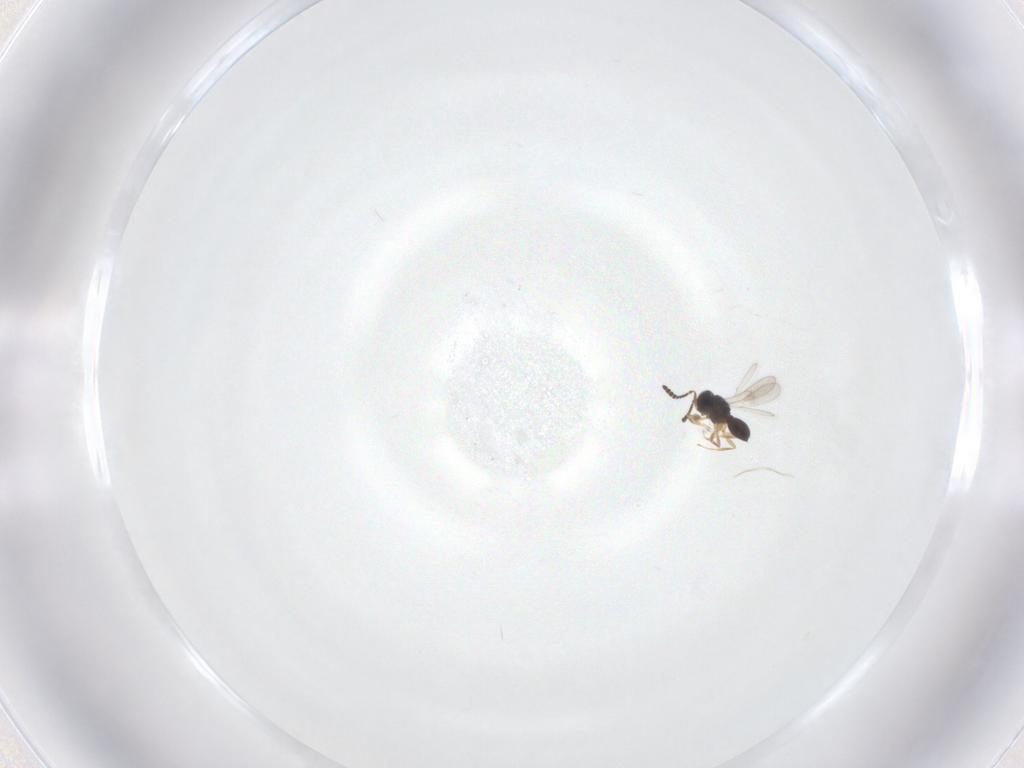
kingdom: Animalia
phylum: Arthropoda
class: Insecta
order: Hymenoptera
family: Scelionidae
